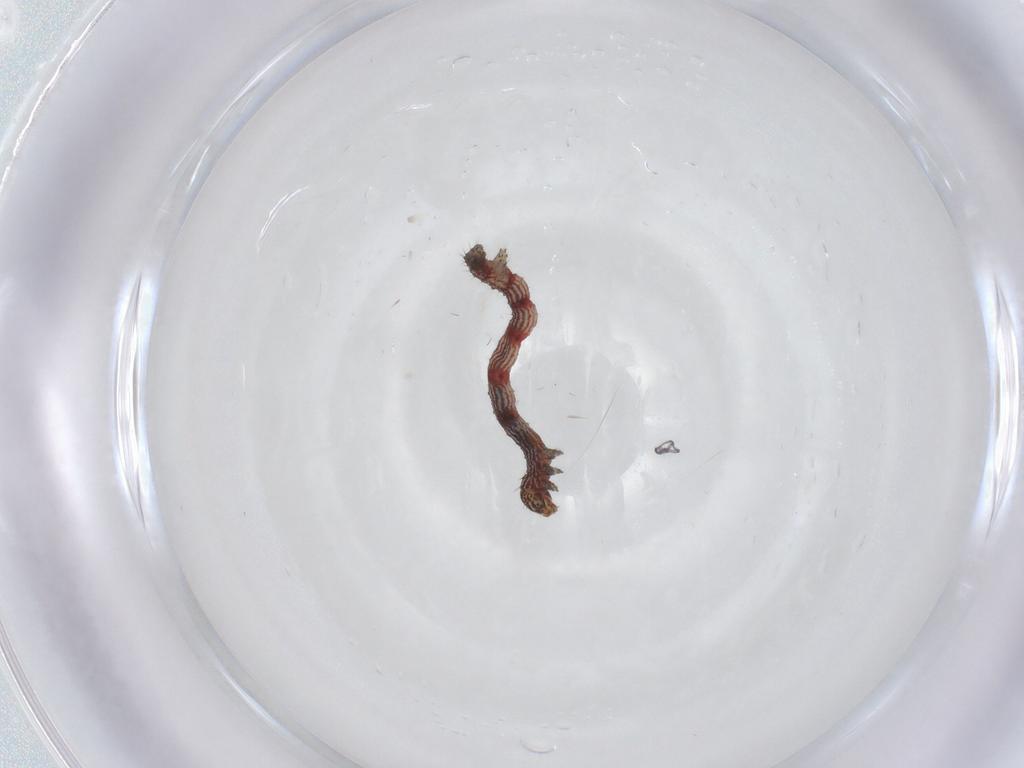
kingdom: Animalia
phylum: Arthropoda
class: Insecta
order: Lepidoptera
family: Geometridae
